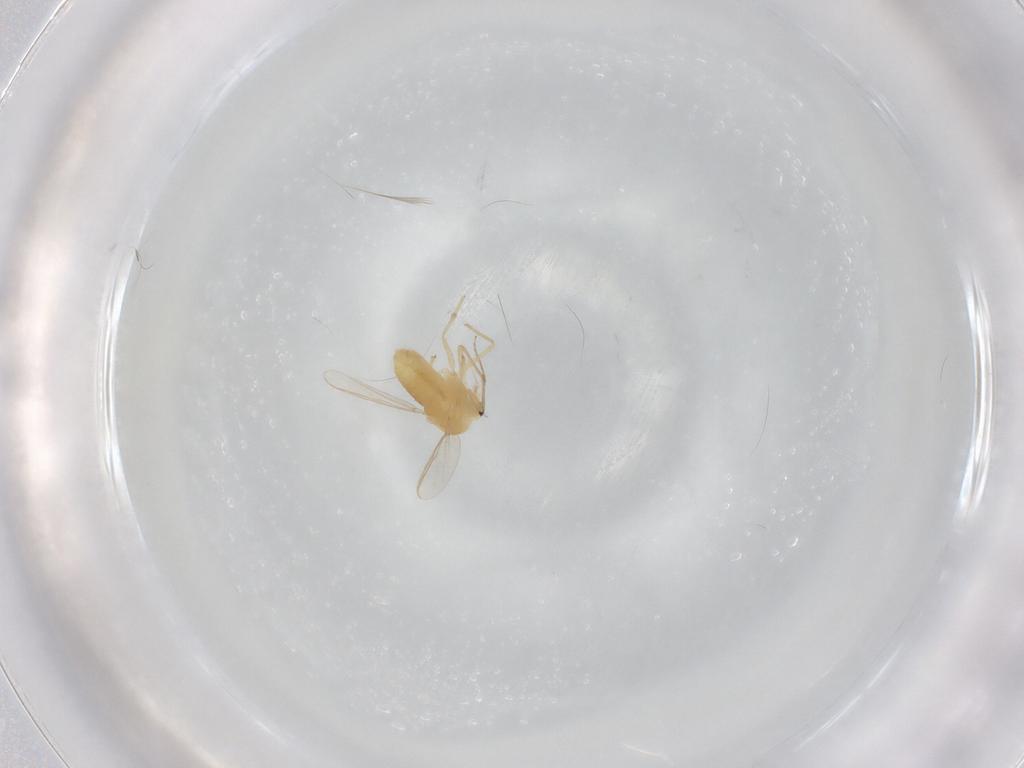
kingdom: Animalia
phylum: Arthropoda
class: Insecta
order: Diptera
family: Chironomidae
